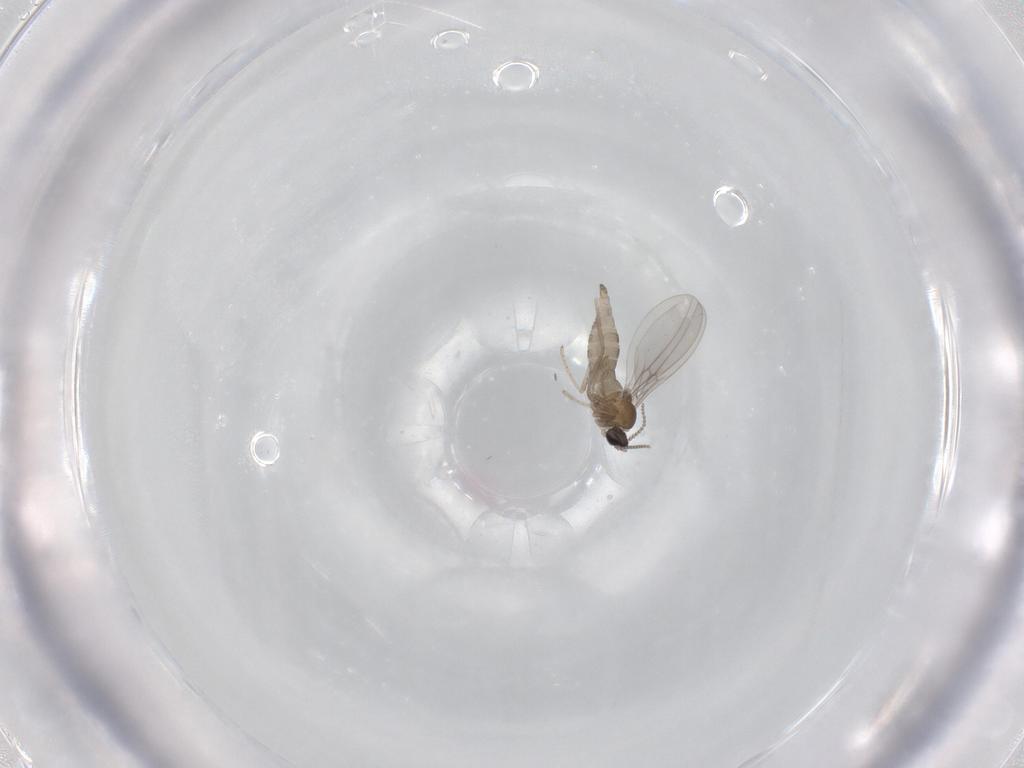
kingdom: Animalia
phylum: Arthropoda
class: Insecta
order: Diptera
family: Cecidomyiidae
